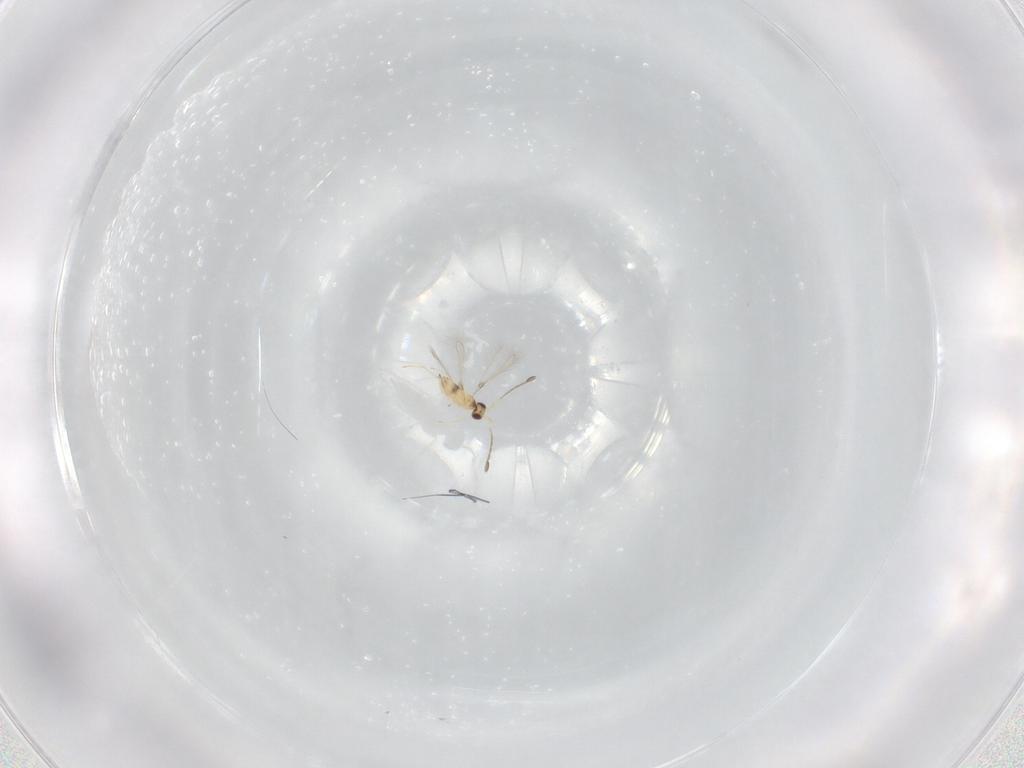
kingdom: Animalia
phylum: Arthropoda
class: Insecta
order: Hymenoptera
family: Mymaridae
